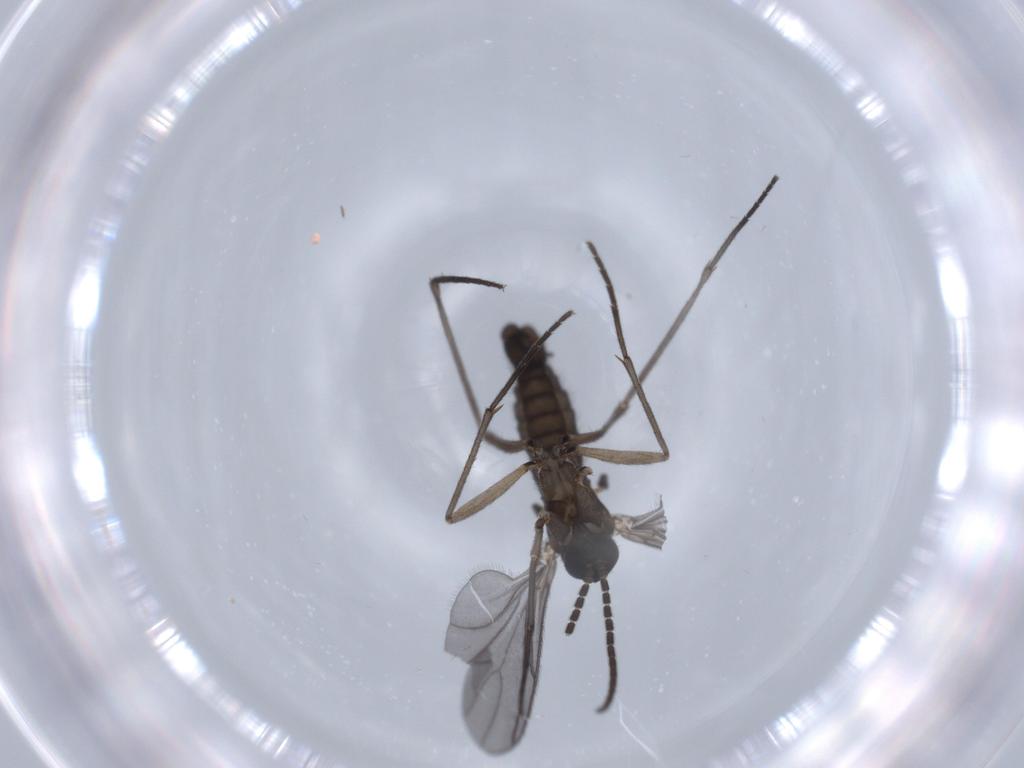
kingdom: Animalia
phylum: Arthropoda
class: Insecta
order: Diptera
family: Sciaridae
